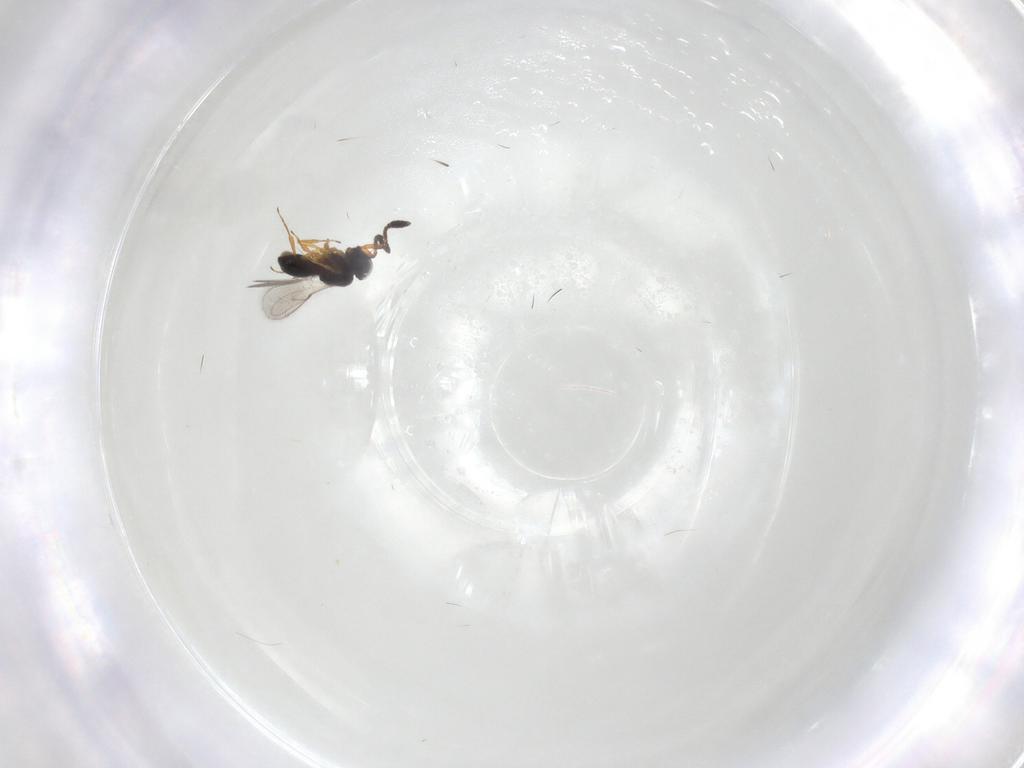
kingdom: Animalia
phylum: Arthropoda
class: Insecta
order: Hymenoptera
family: Scelionidae
